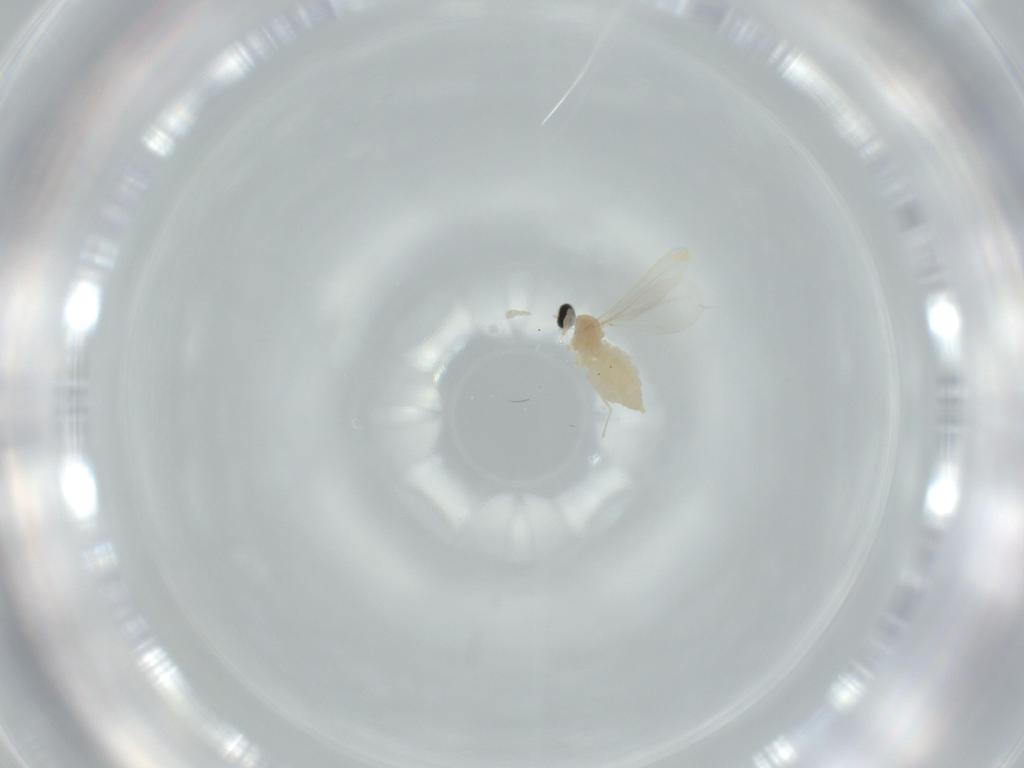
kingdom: Animalia
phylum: Arthropoda
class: Insecta
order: Diptera
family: Cecidomyiidae
